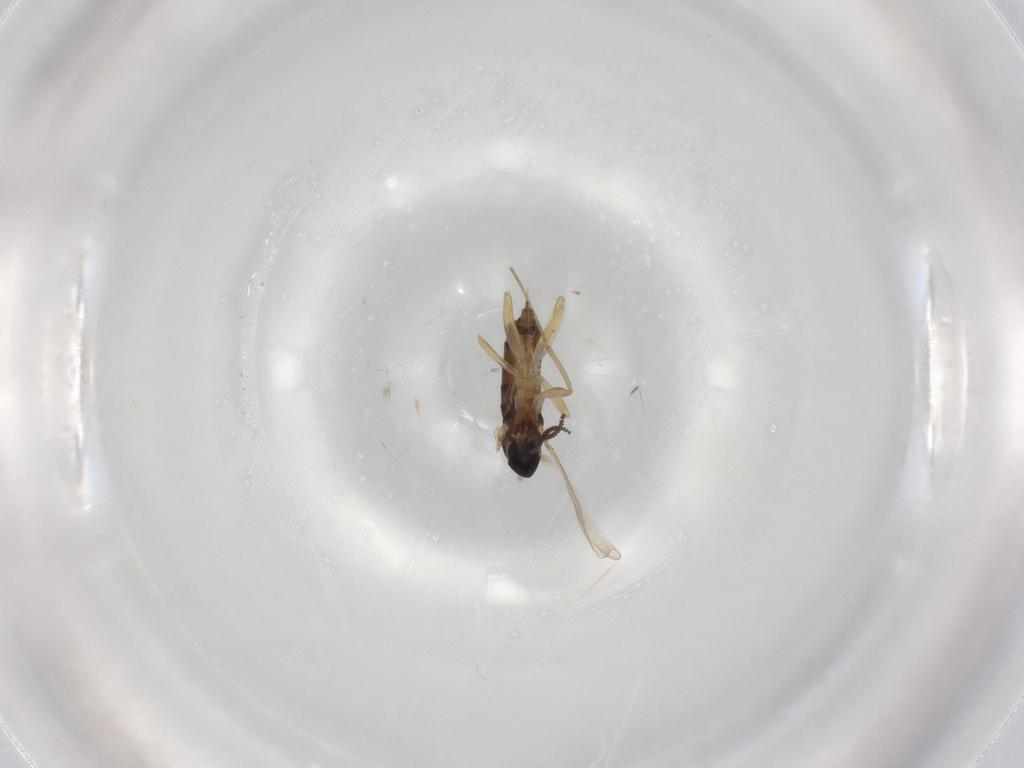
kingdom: Animalia
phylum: Arthropoda
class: Insecta
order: Diptera
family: Cecidomyiidae
